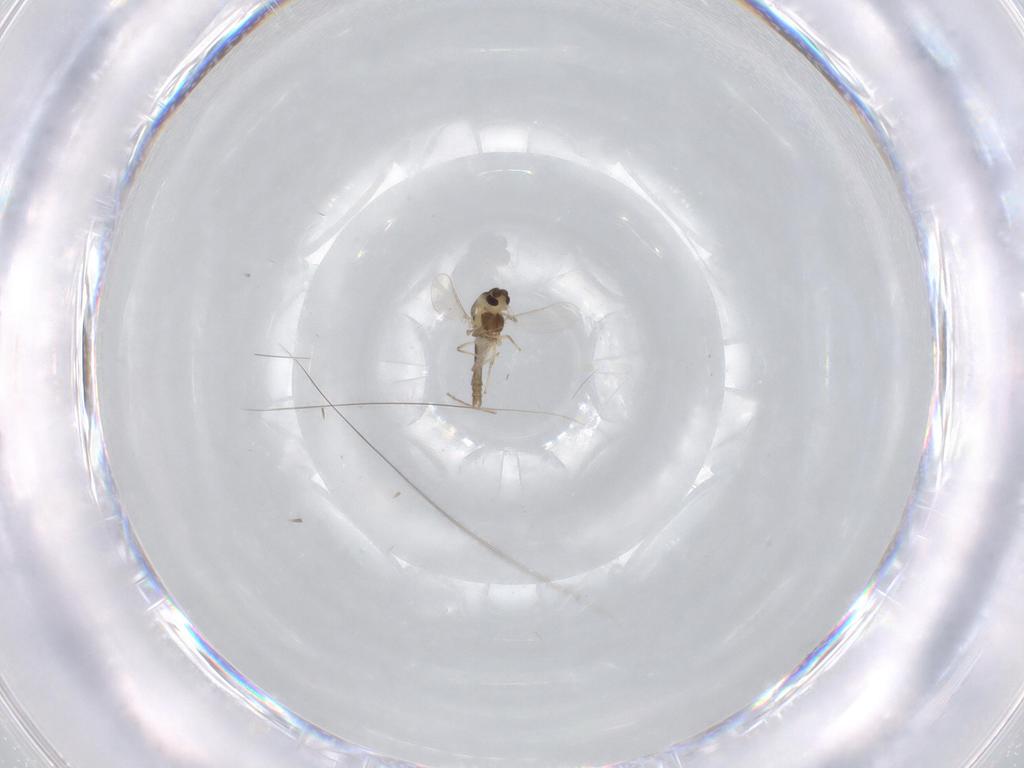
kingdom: Animalia
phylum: Arthropoda
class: Insecta
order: Diptera
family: Chironomidae
